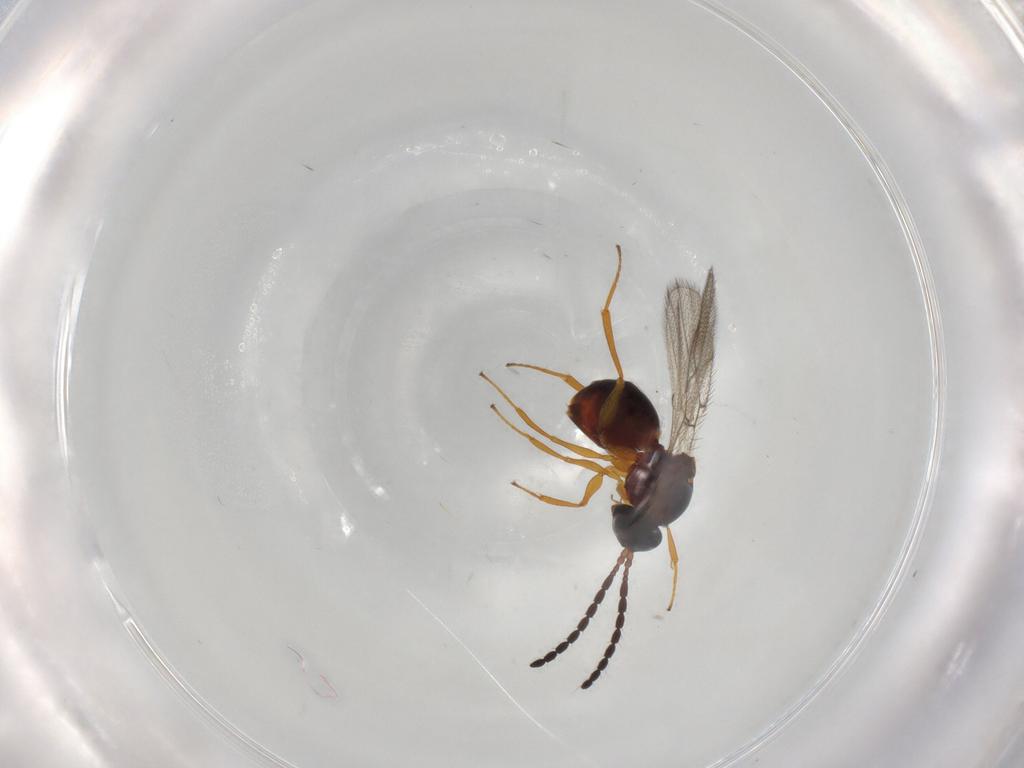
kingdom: Animalia
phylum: Arthropoda
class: Insecta
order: Hymenoptera
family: Figitidae
